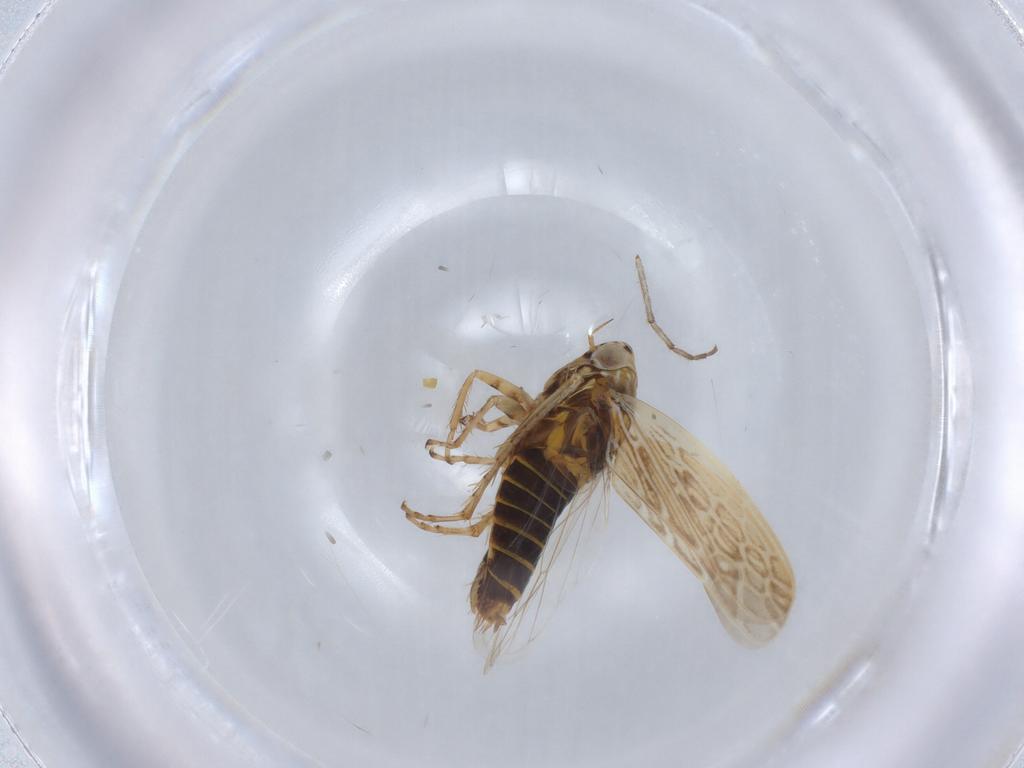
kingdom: Animalia
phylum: Arthropoda
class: Insecta
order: Hemiptera
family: Cicadellidae
